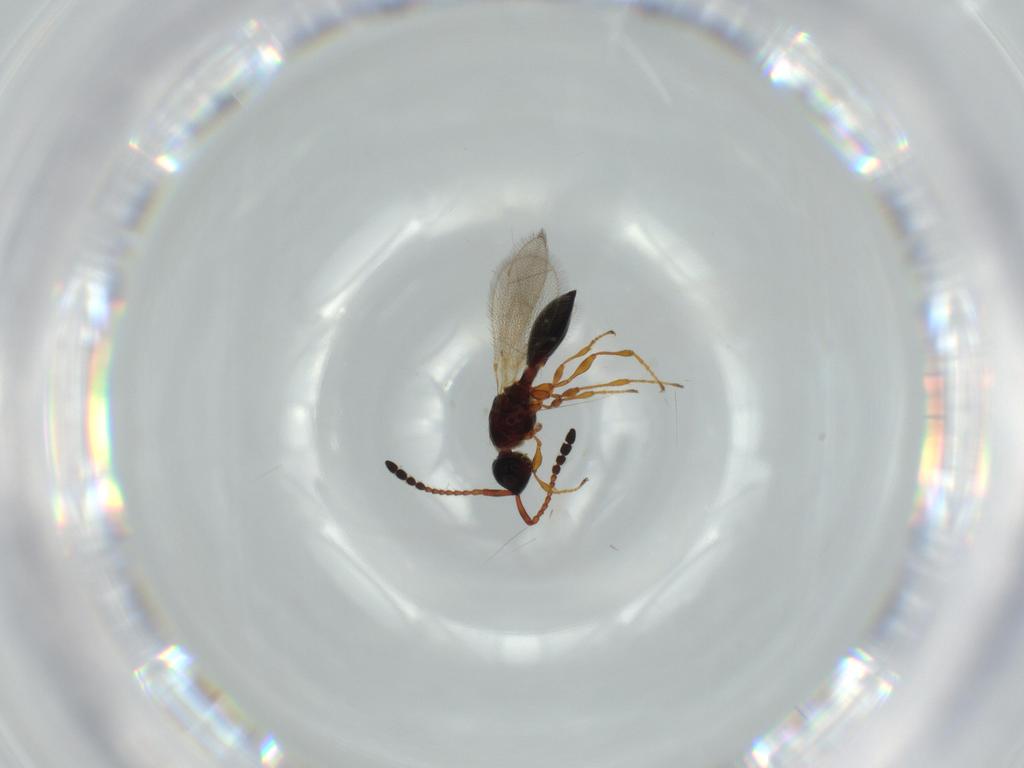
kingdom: Animalia
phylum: Arthropoda
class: Insecta
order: Hymenoptera
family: Diapriidae
